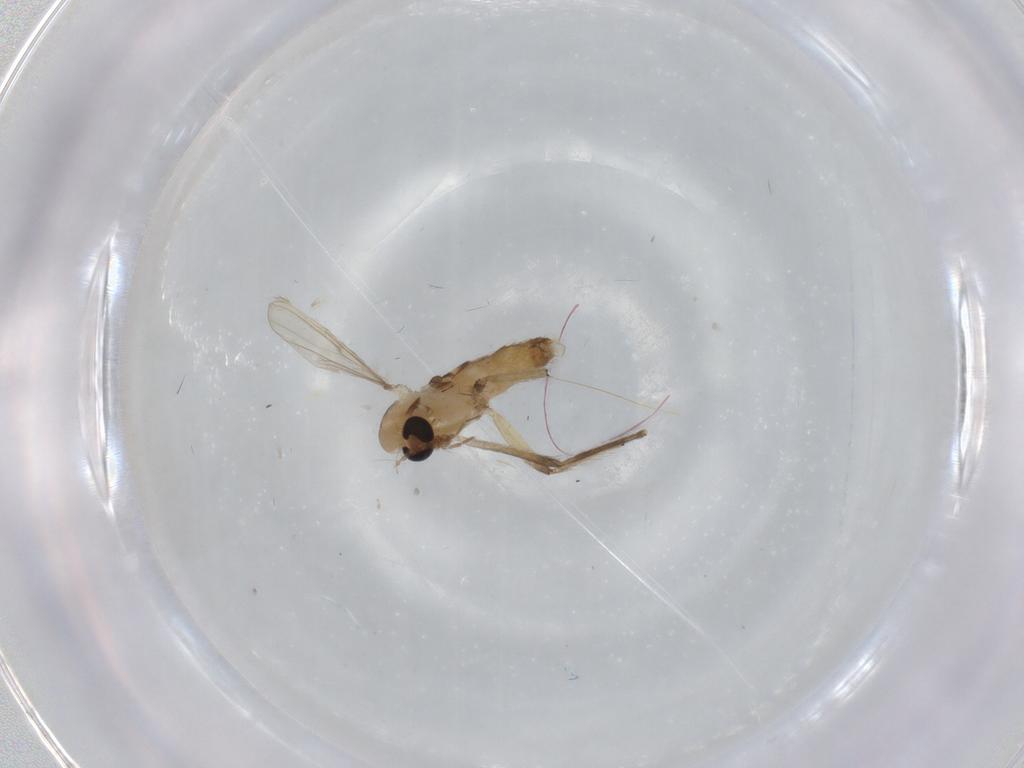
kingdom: Animalia
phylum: Arthropoda
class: Insecta
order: Diptera
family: Chironomidae
